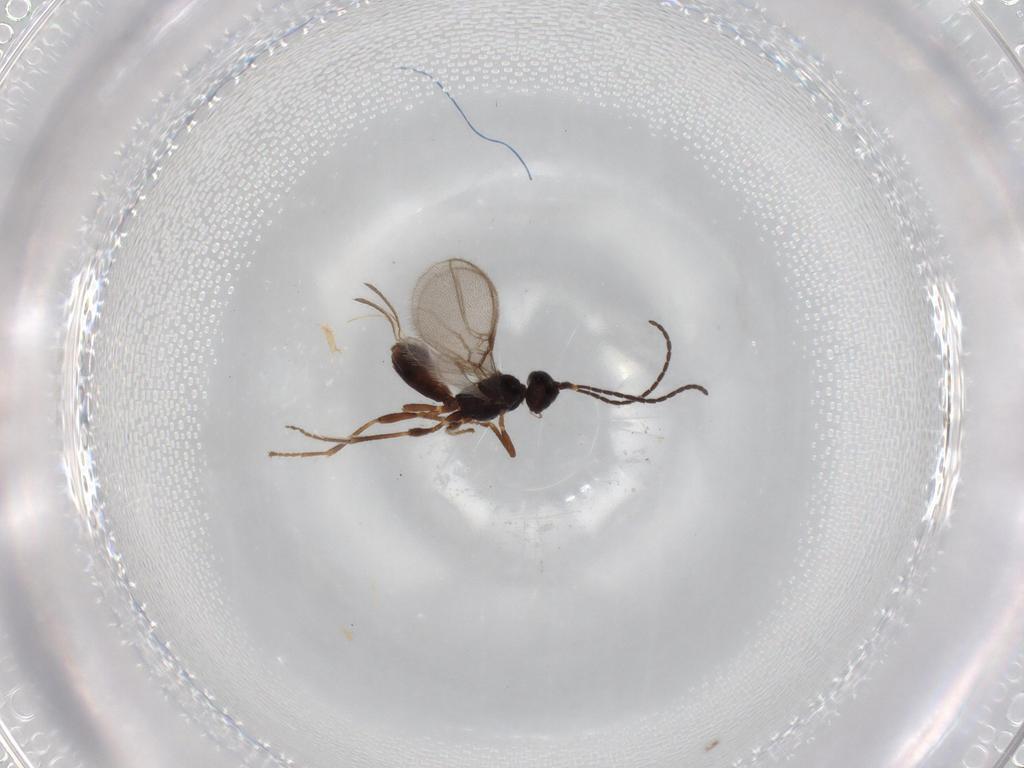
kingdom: Animalia
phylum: Arthropoda
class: Insecta
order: Hymenoptera
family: Braconidae
